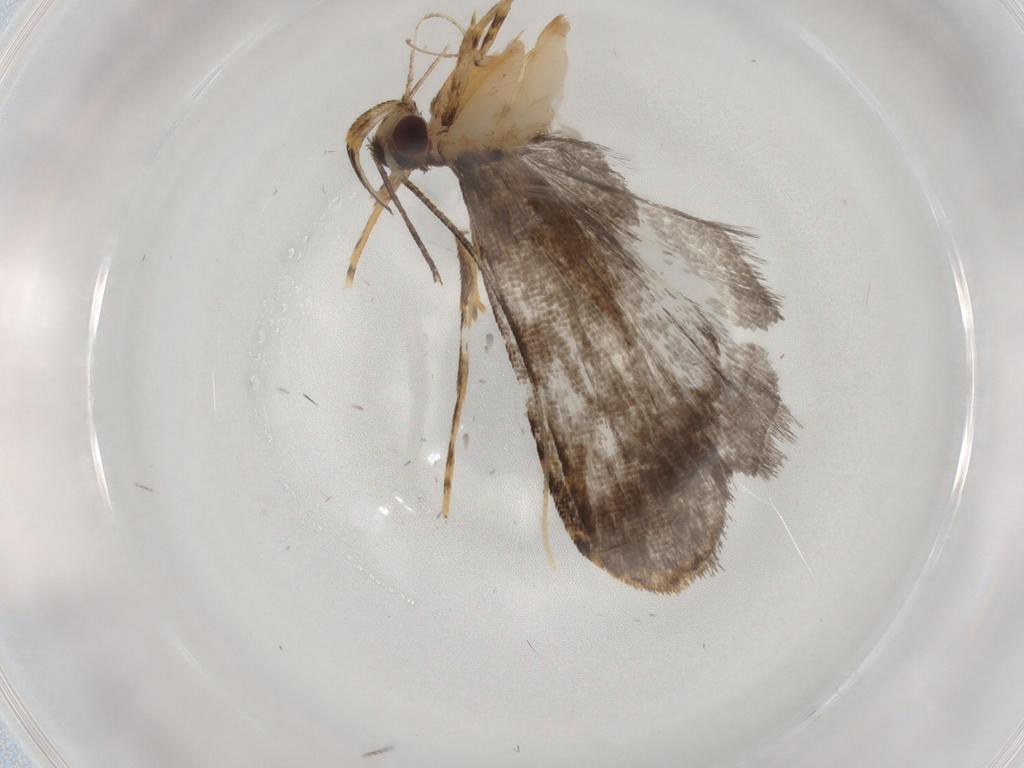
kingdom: Animalia
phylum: Arthropoda
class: Insecta
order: Lepidoptera
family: Cosmopterigidae
